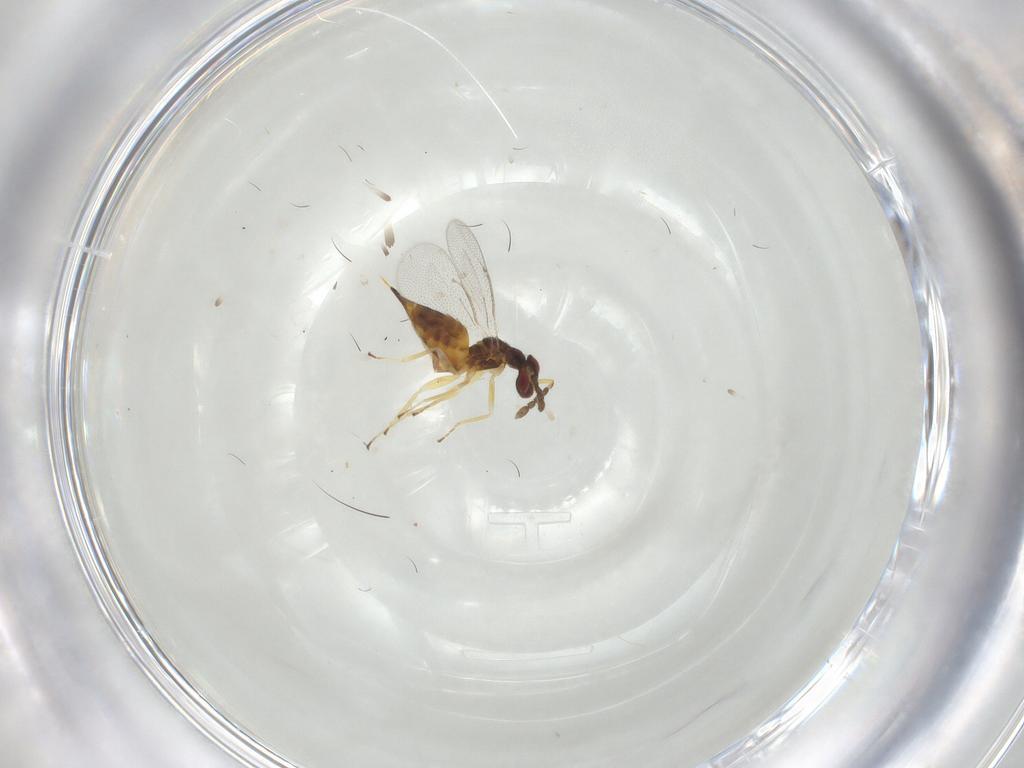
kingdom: Animalia
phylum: Arthropoda
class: Insecta
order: Hymenoptera
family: Eulophidae
